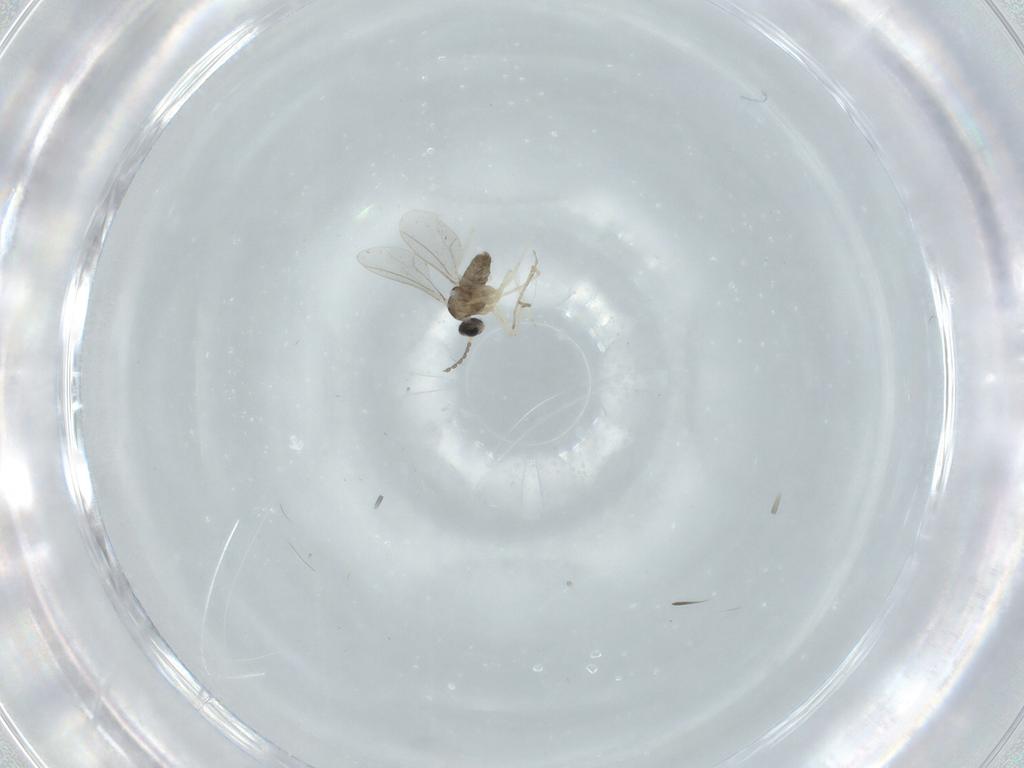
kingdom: Animalia
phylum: Arthropoda
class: Insecta
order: Diptera
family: Cecidomyiidae
